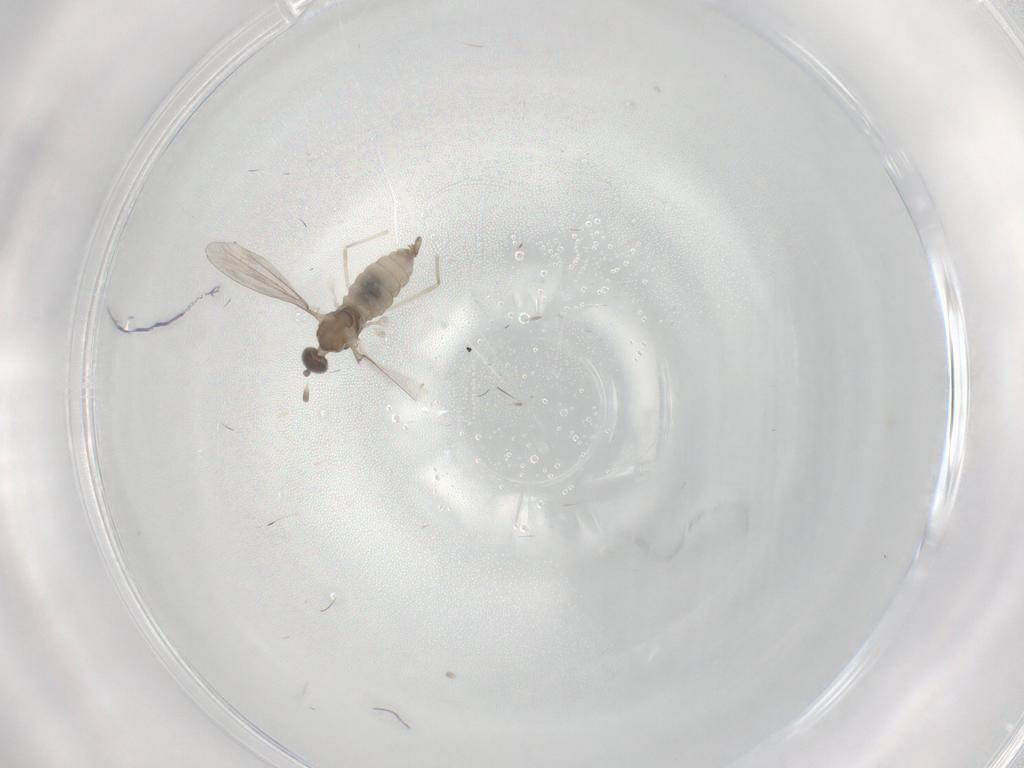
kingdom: Animalia
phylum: Arthropoda
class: Insecta
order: Diptera
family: Cecidomyiidae
